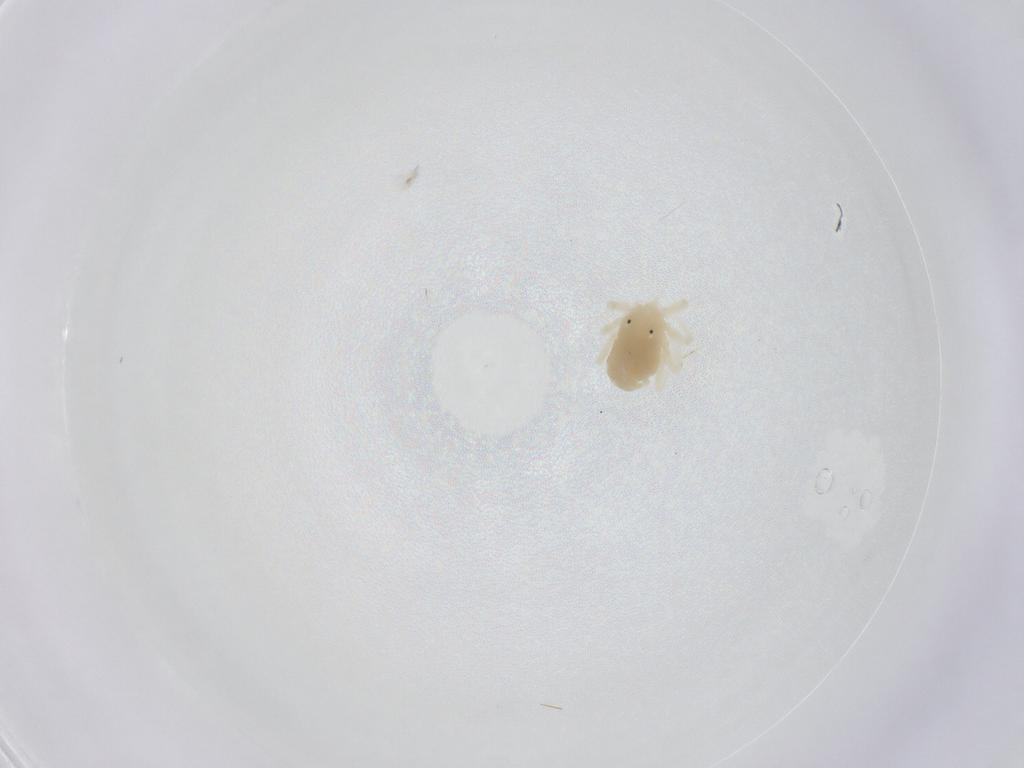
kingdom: Animalia
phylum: Arthropoda
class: Arachnida
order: Trombidiformes
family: Anystidae
